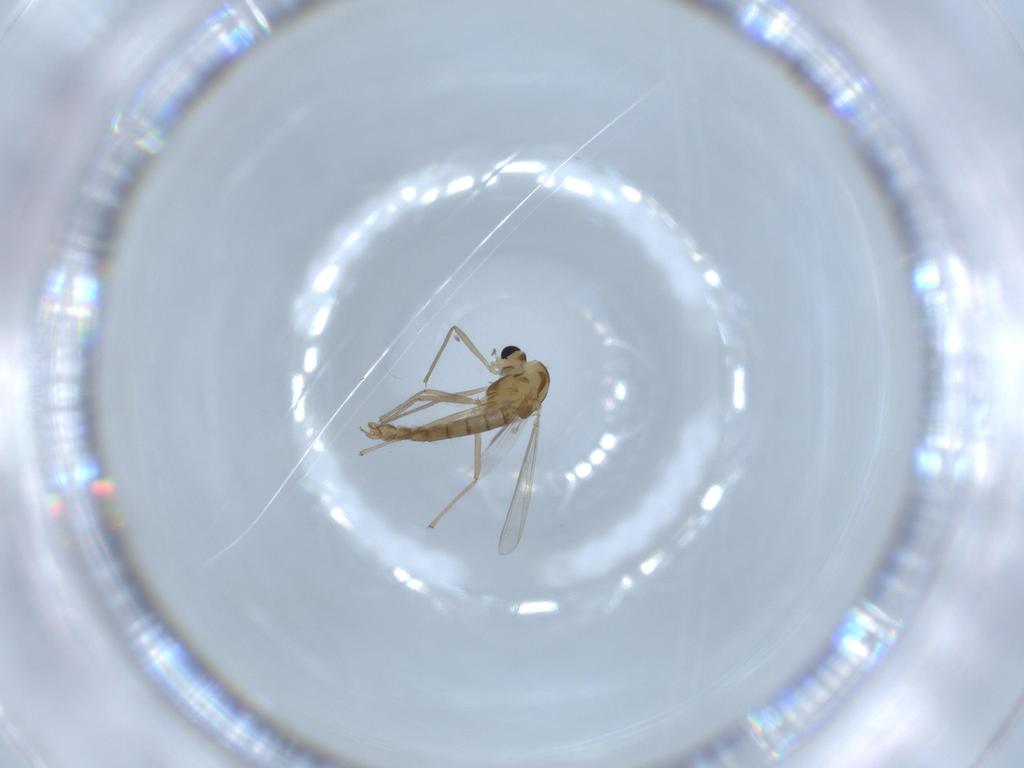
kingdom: Animalia
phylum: Arthropoda
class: Insecta
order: Diptera
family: Chironomidae
